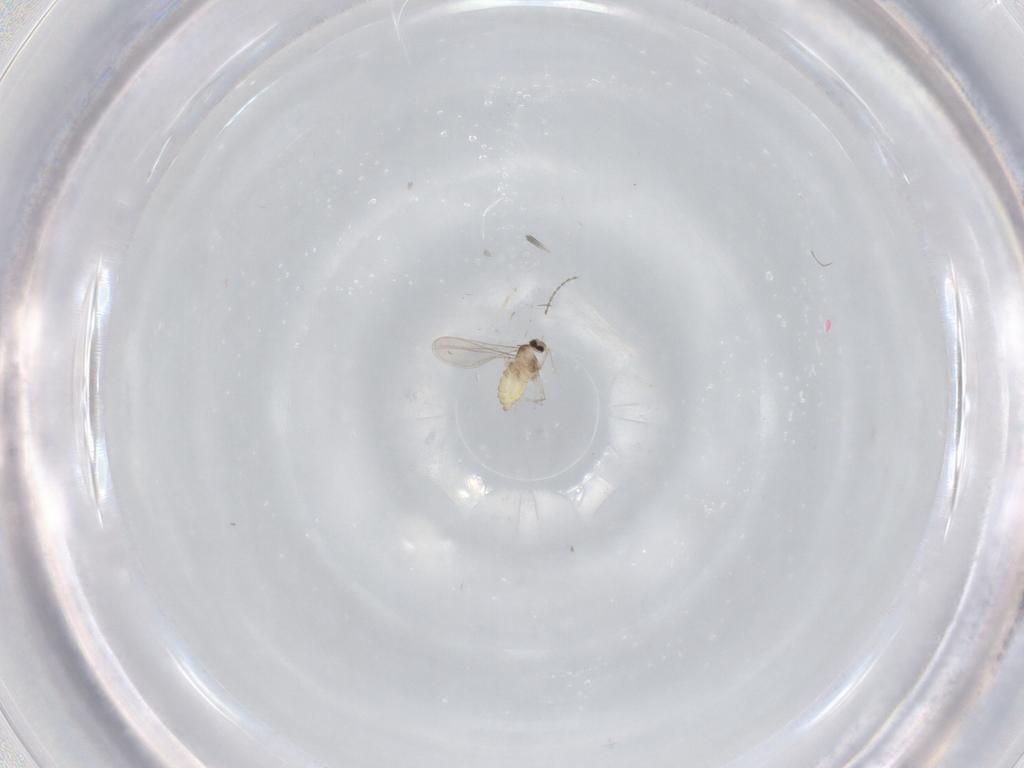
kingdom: Animalia
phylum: Arthropoda
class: Insecta
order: Diptera
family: Cecidomyiidae
